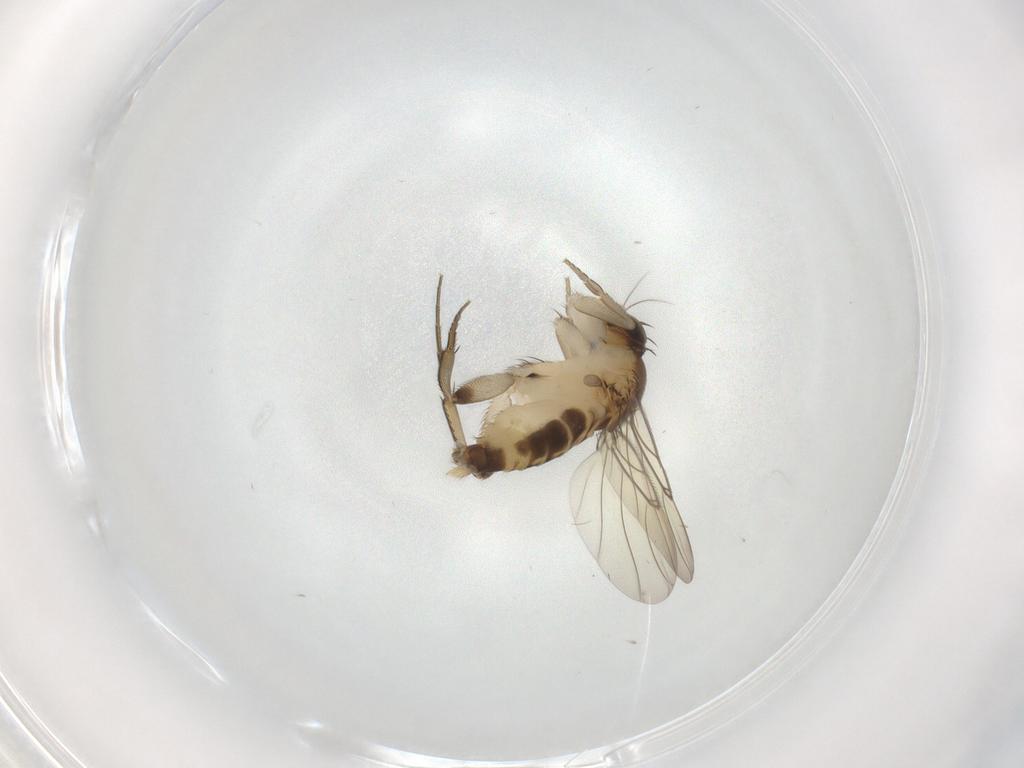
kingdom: Animalia
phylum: Arthropoda
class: Insecta
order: Diptera
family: Phoridae
